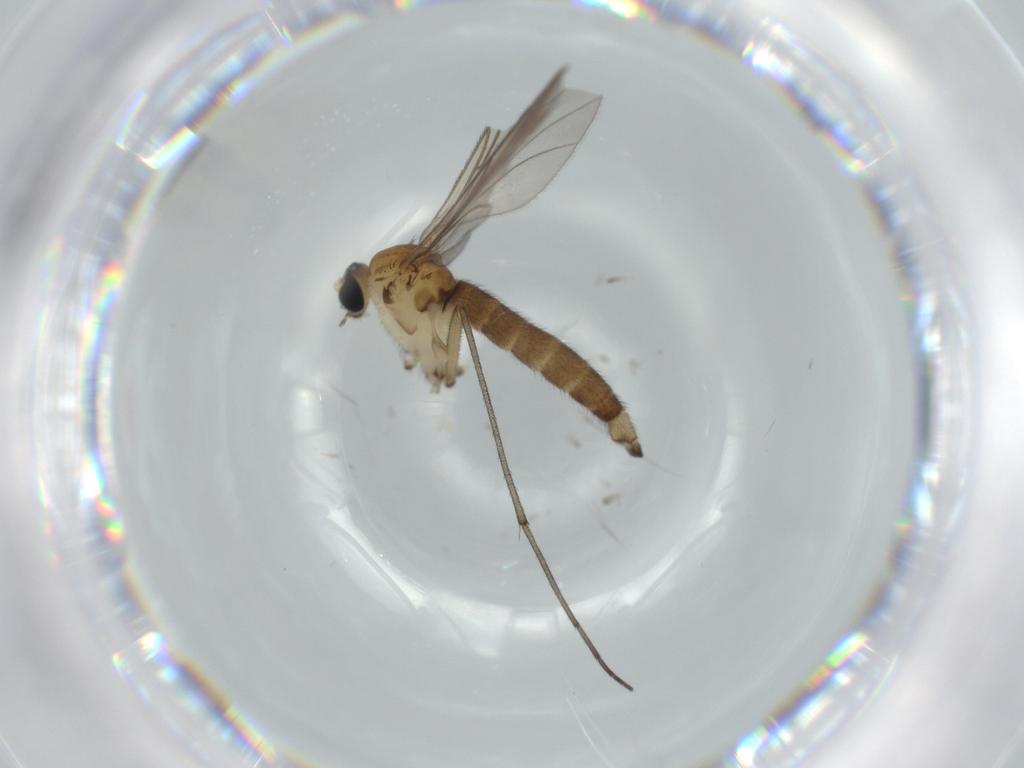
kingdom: Animalia
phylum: Arthropoda
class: Insecta
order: Diptera
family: Sciaridae
